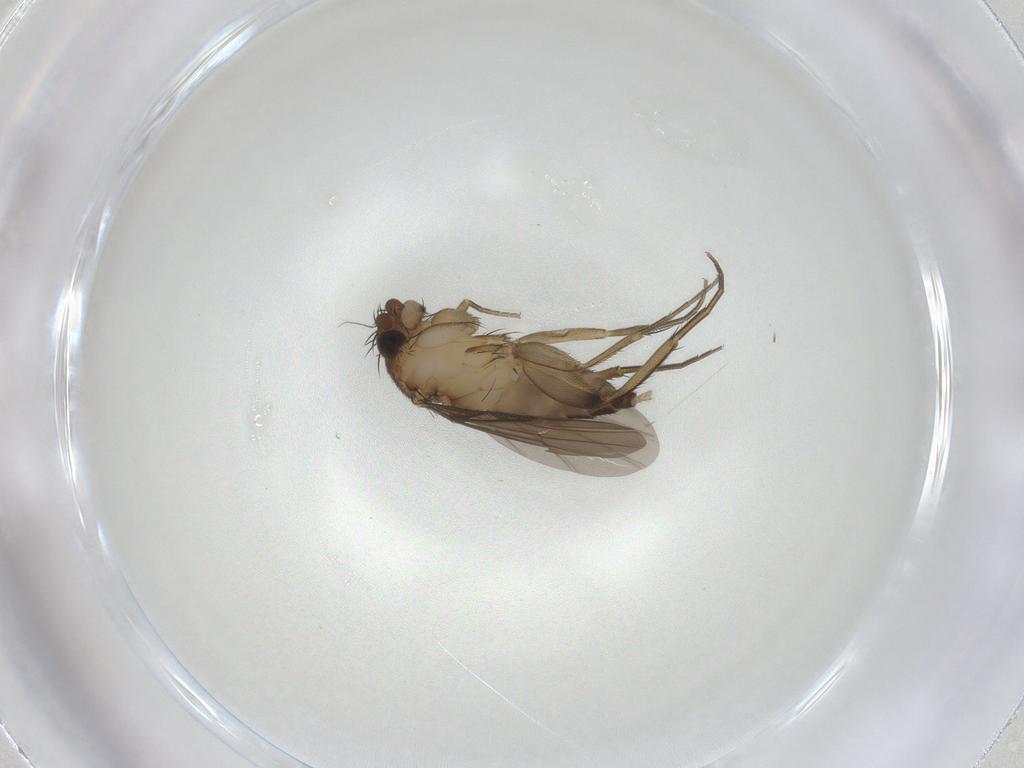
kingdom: Animalia
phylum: Arthropoda
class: Insecta
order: Diptera
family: Phoridae
